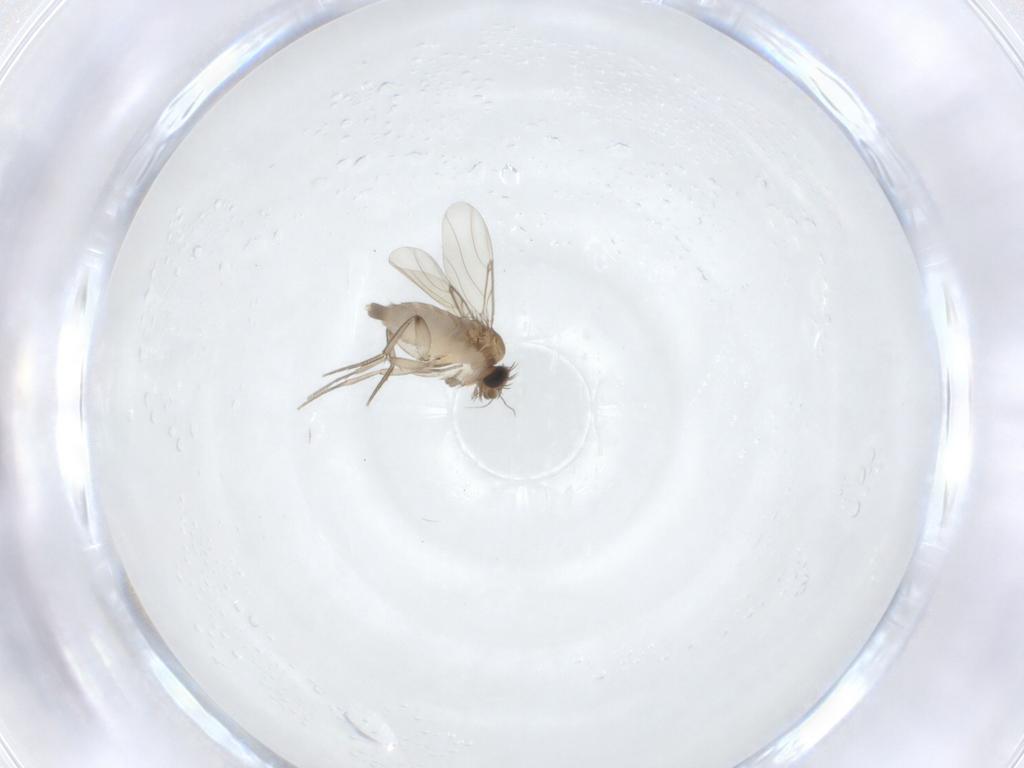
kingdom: Animalia
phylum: Arthropoda
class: Insecta
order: Diptera
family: Phoridae
